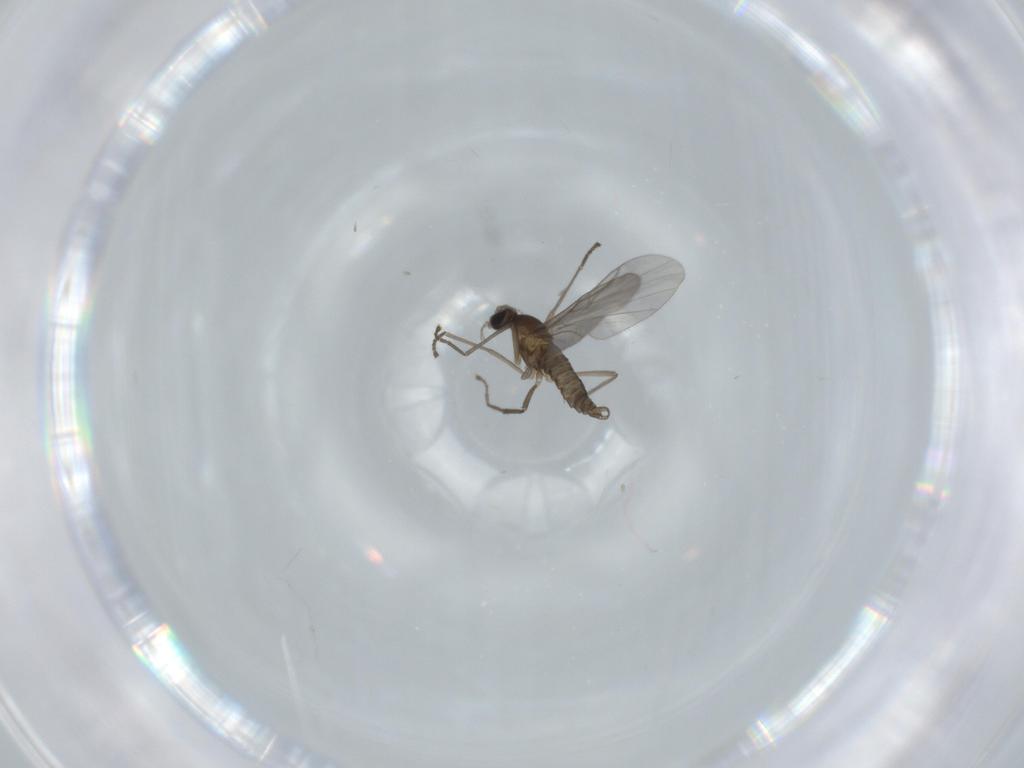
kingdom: Animalia
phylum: Arthropoda
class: Insecta
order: Diptera
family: Cecidomyiidae
